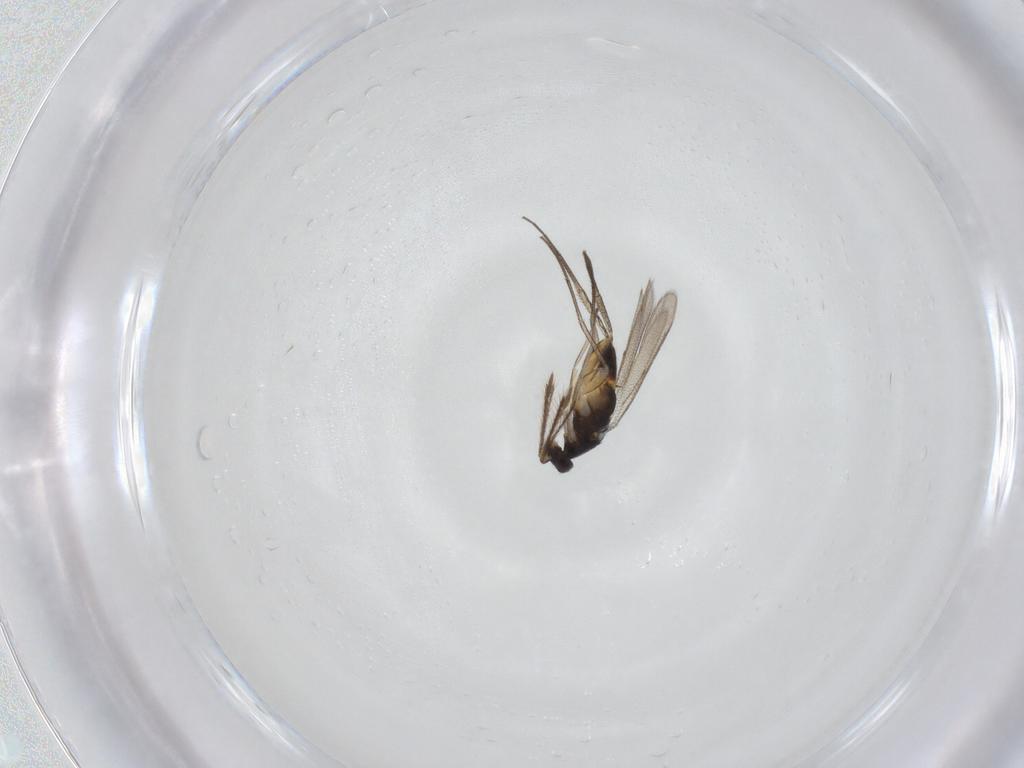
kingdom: Animalia
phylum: Arthropoda
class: Insecta
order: Hymenoptera
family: Eulophidae
